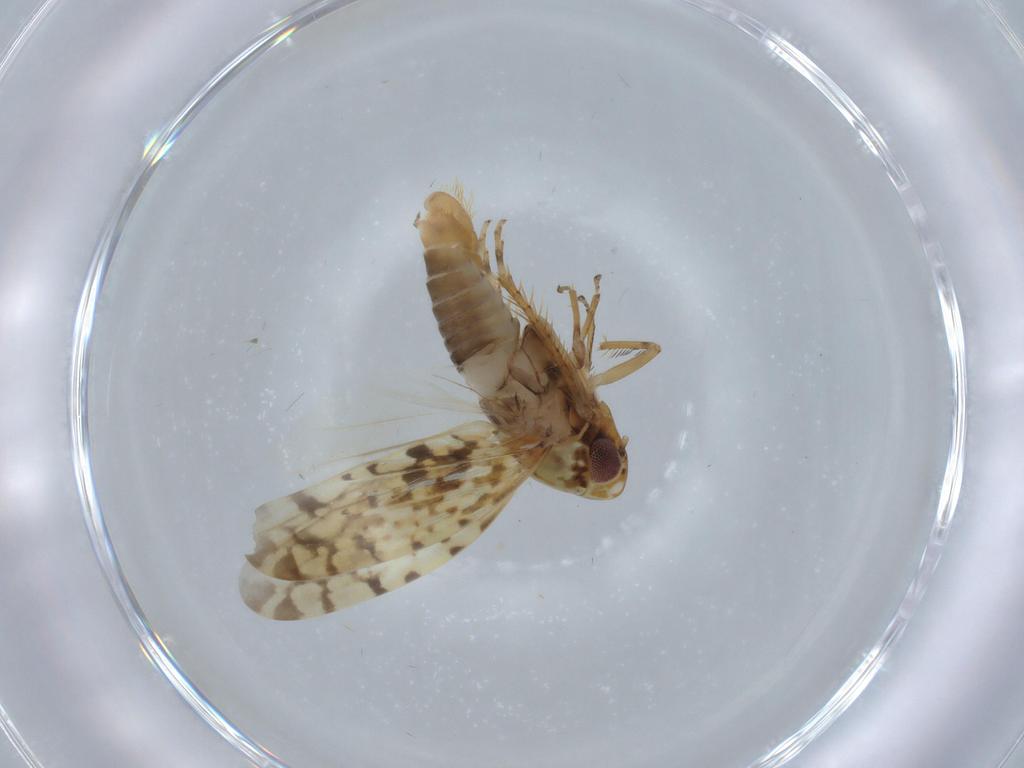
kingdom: Animalia
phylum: Arthropoda
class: Insecta
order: Hemiptera
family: Cicadellidae
